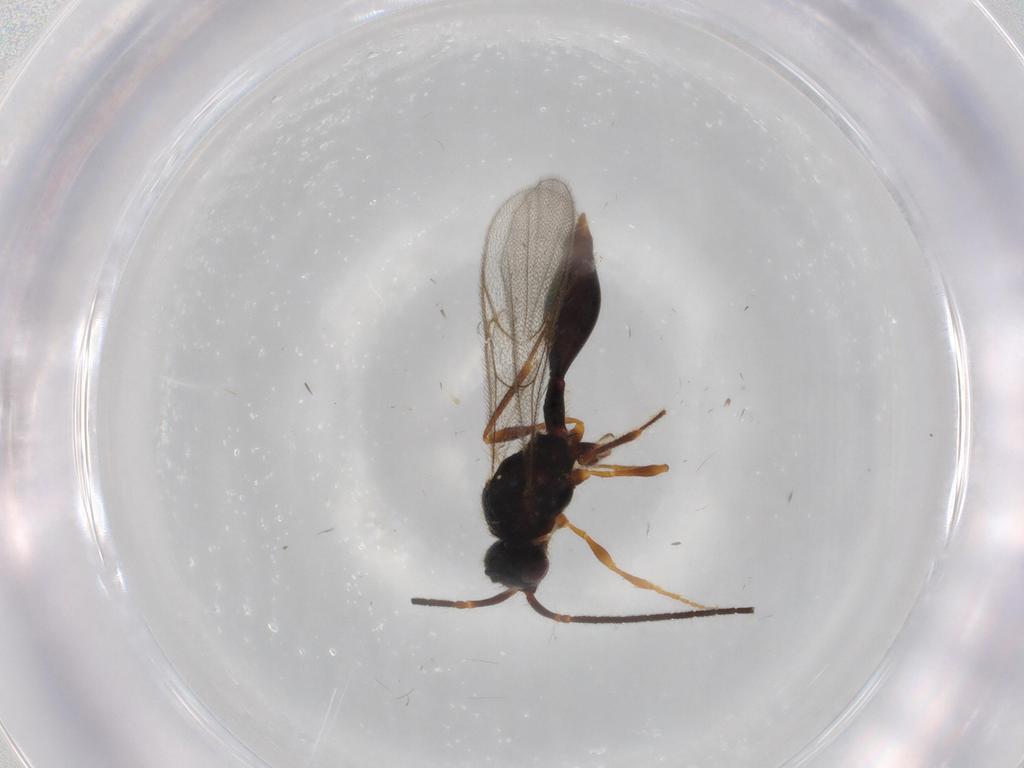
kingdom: Animalia
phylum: Arthropoda
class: Insecta
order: Hymenoptera
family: Diapriidae
